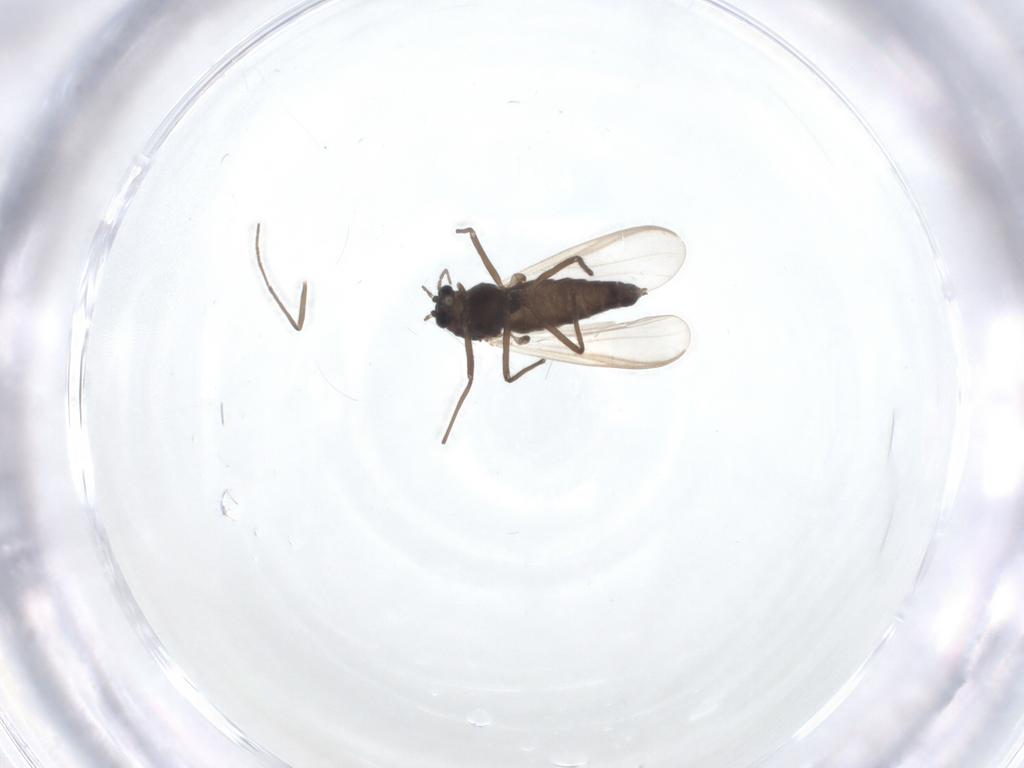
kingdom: Animalia
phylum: Arthropoda
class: Insecta
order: Diptera
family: Chironomidae
